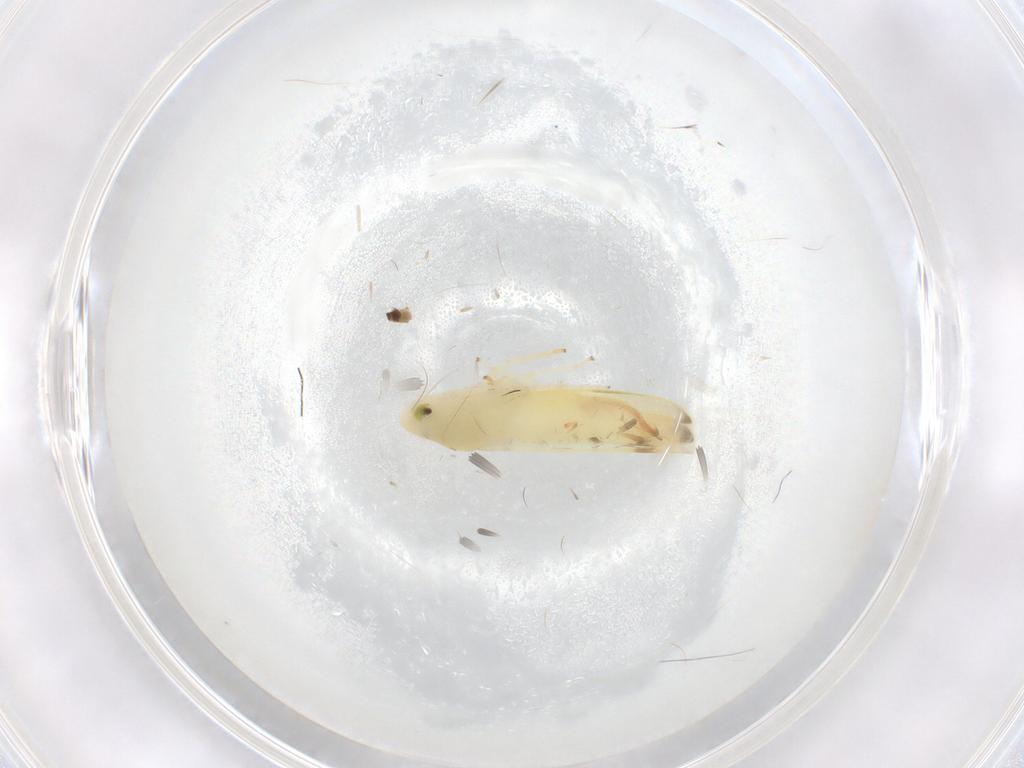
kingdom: Animalia
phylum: Arthropoda
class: Insecta
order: Hemiptera
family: Cicadellidae
